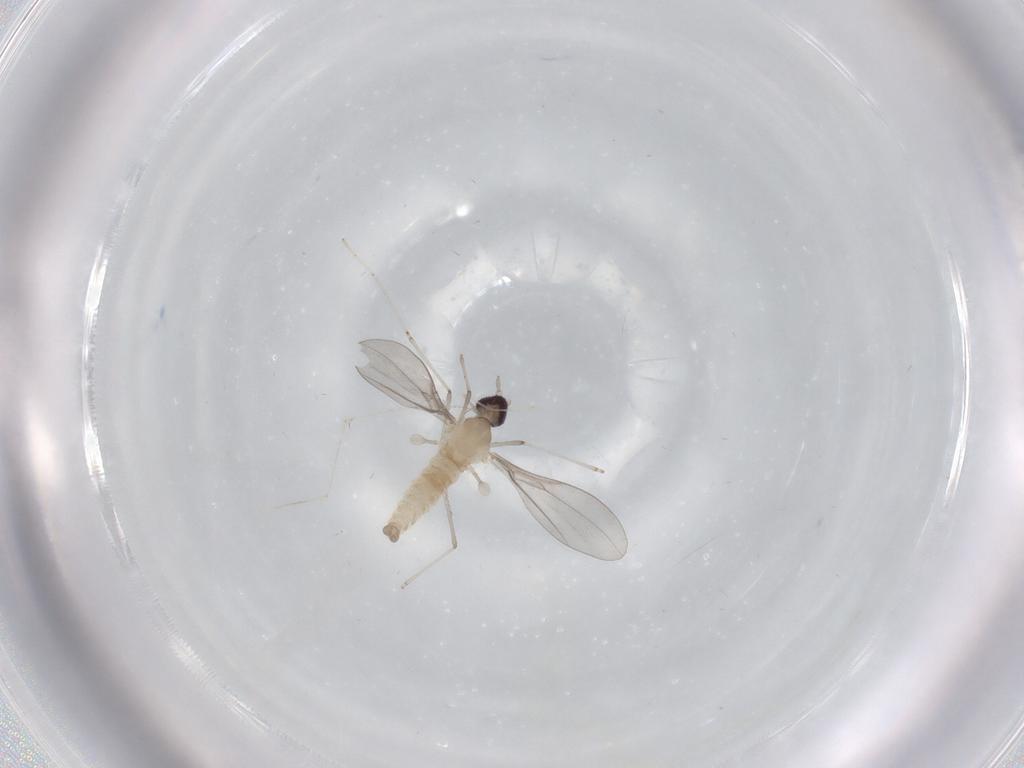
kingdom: Animalia
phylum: Arthropoda
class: Insecta
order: Diptera
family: Cecidomyiidae
